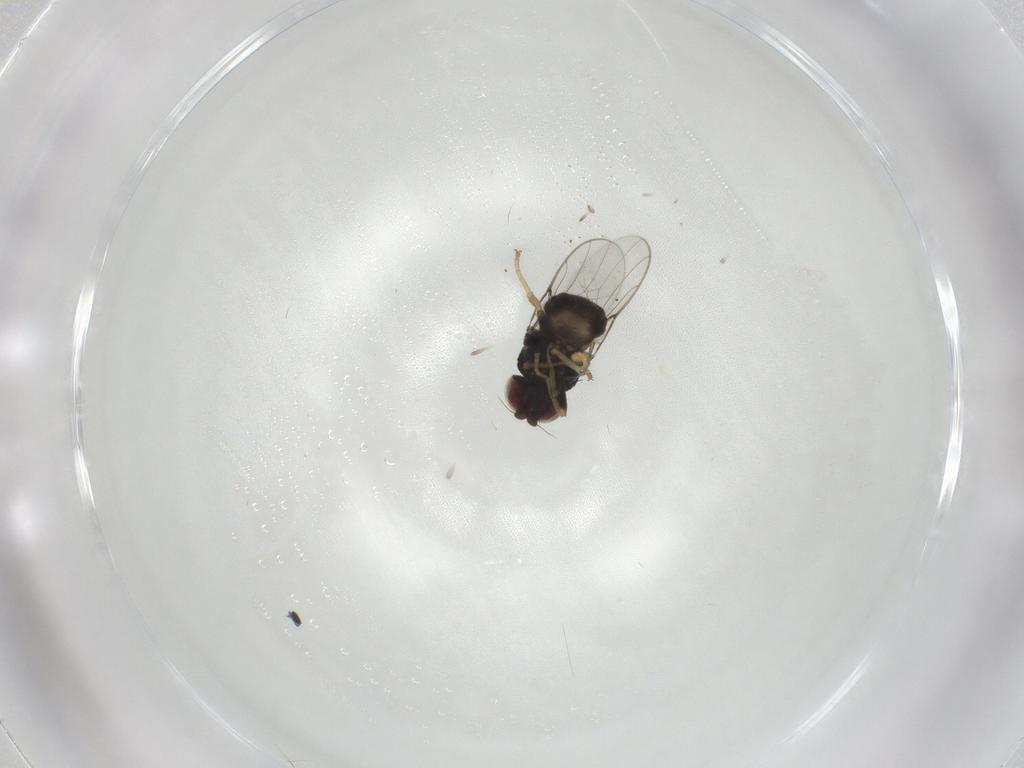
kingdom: Animalia
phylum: Arthropoda
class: Insecta
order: Diptera
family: Chloropidae
